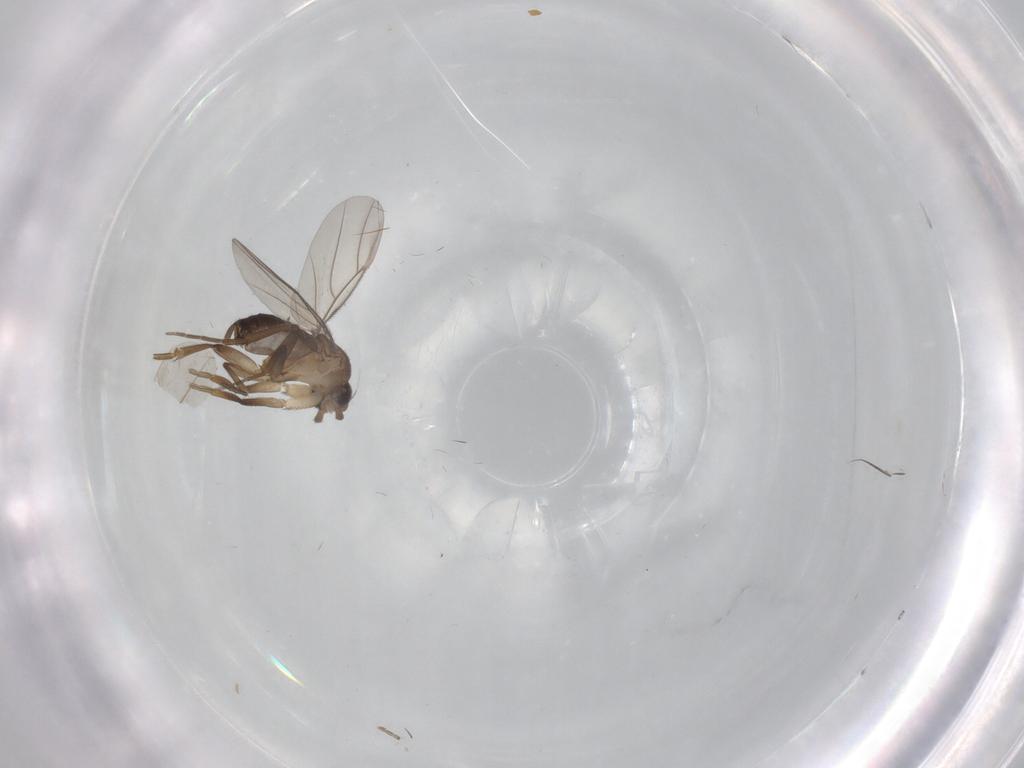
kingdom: Animalia
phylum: Arthropoda
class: Insecta
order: Diptera
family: Phoridae
